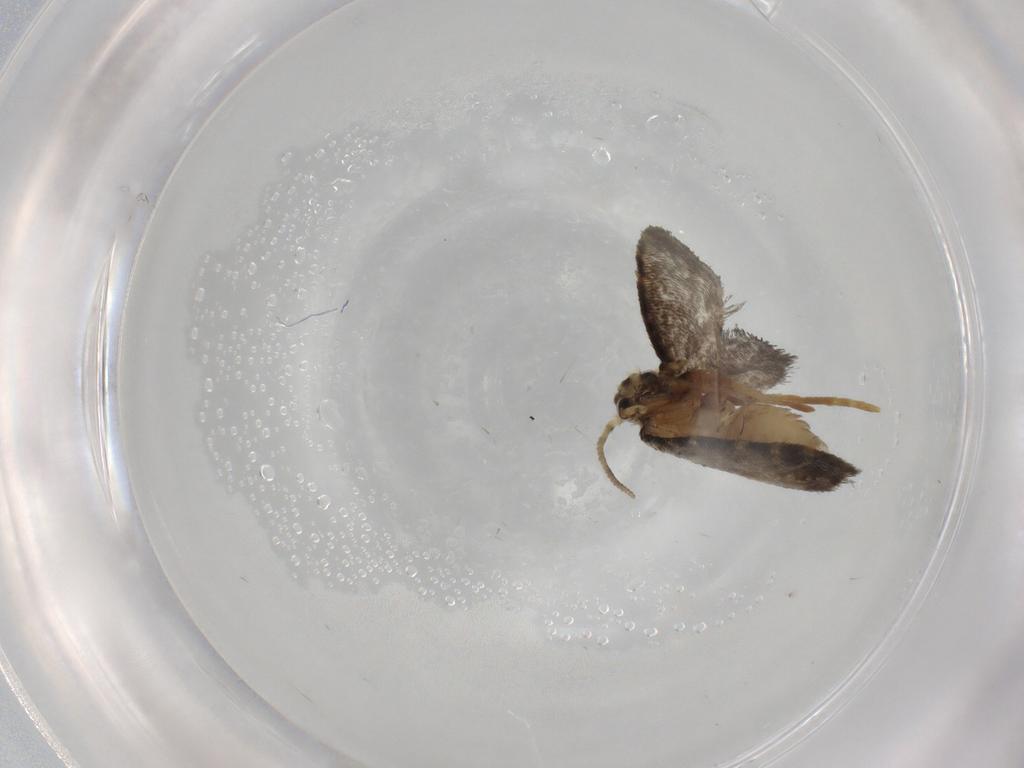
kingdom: Animalia
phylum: Arthropoda
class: Insecta
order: Lepidoptera
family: Psychidae
